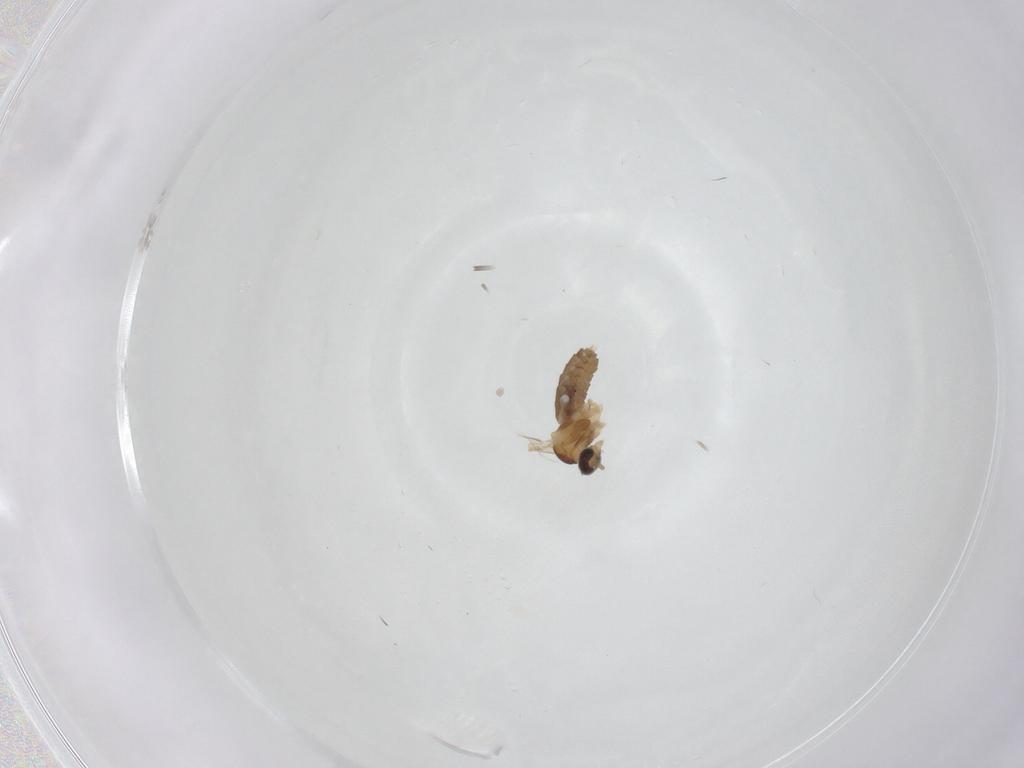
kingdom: Animalia
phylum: Arthropoda
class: Insecta
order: Diptera
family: Cecidomyiidae
